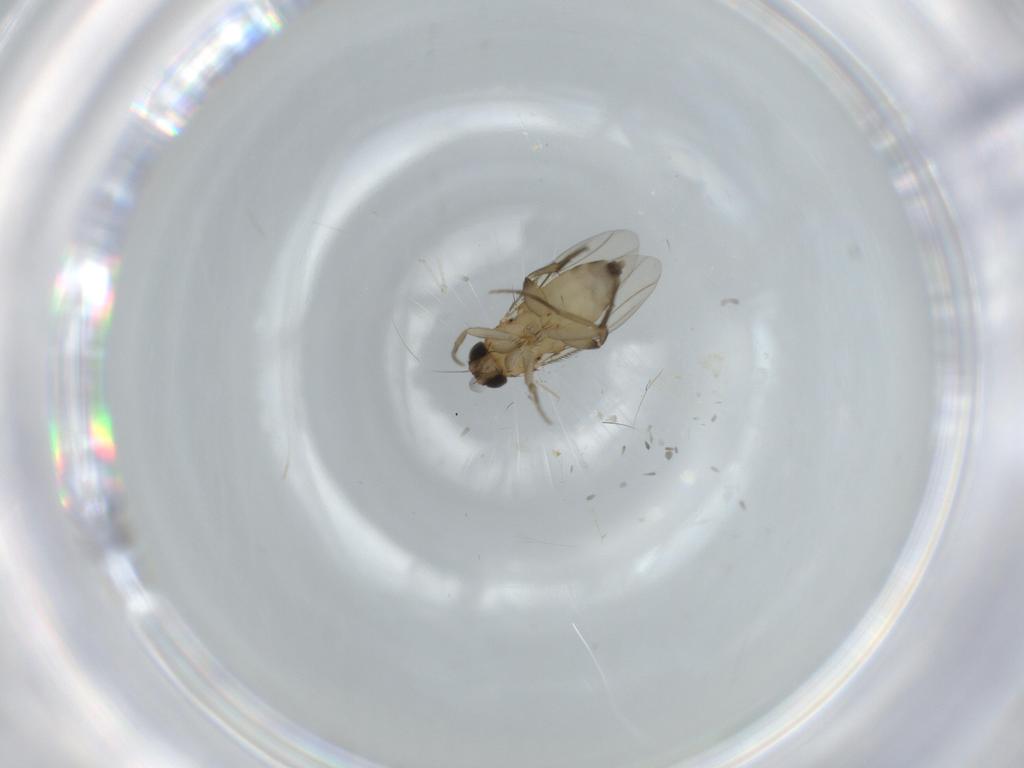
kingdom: Animalia
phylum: Arthropoda
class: Insecta
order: Diptera
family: Phoridae
